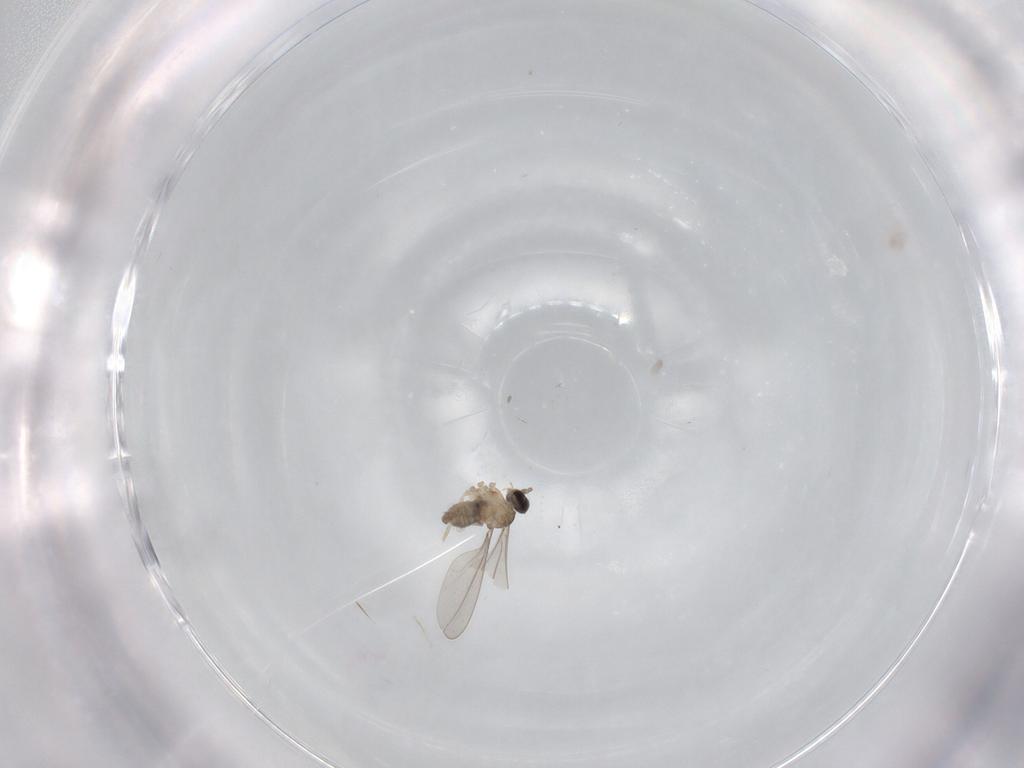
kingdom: Animalia
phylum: Arthropoda
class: Insecta
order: Diptera
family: Cecidomyiidae
